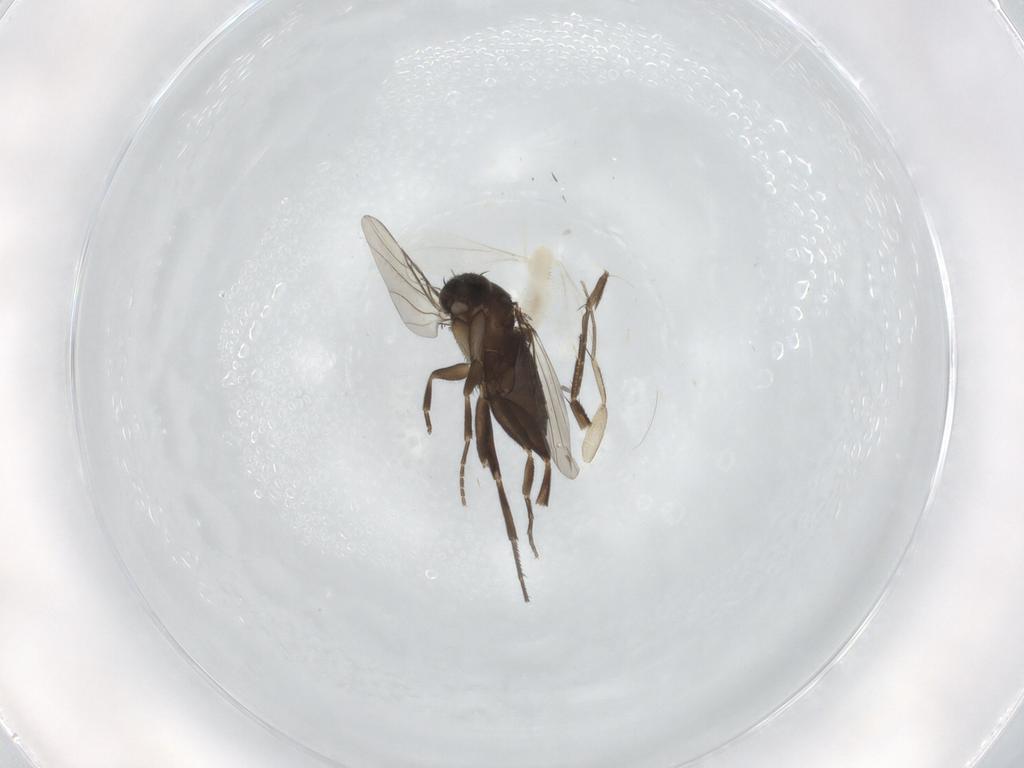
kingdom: Animalia
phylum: Arthropoda
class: Insecta
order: Diptera
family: Phoridae
